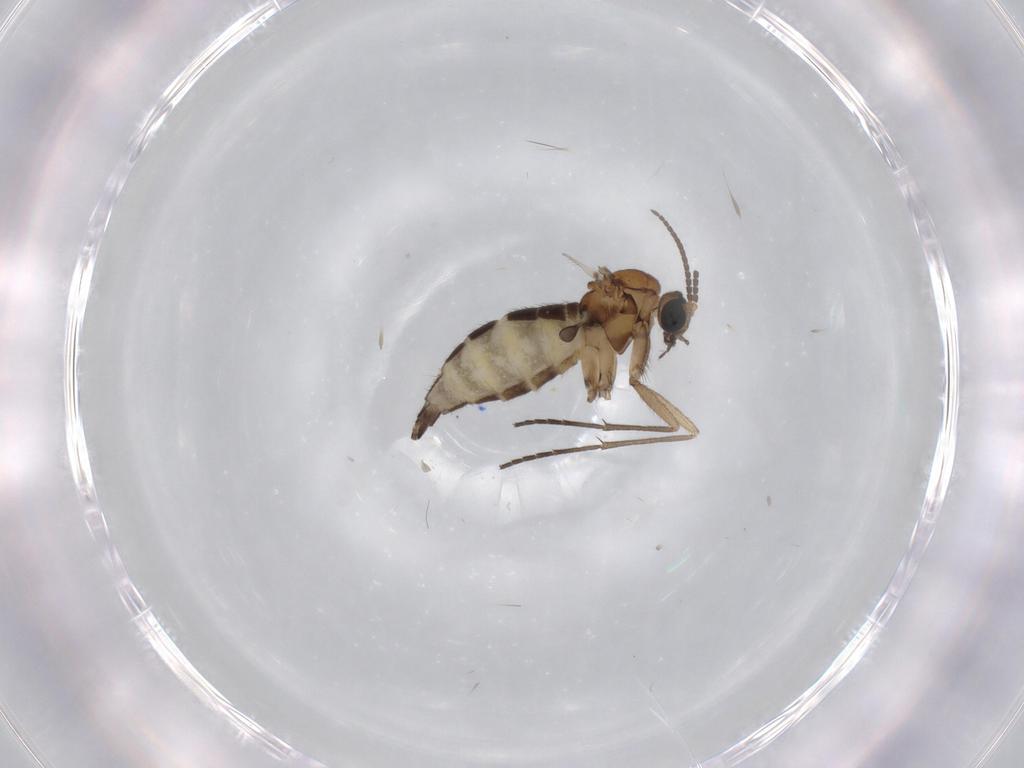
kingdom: Animalia
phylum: Arthropoda
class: Insecta
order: Diptera
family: Sciaridae
